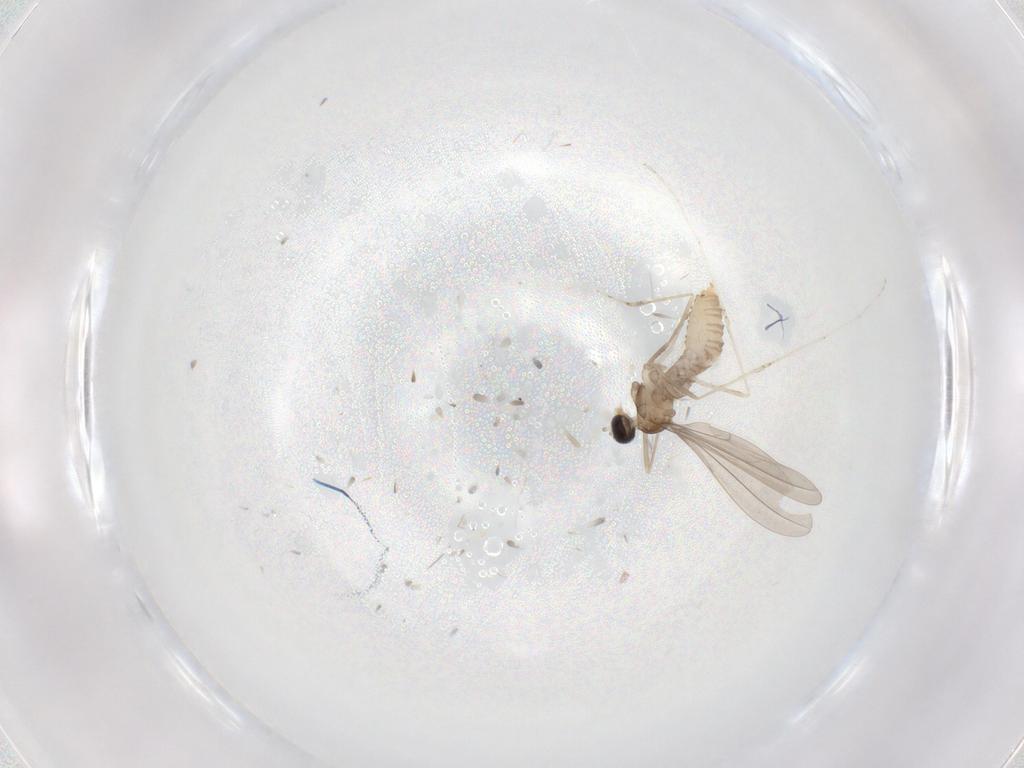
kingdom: Animalia
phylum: Arthropoda
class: Insecta
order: Diptera
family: Cecidomyiidae
